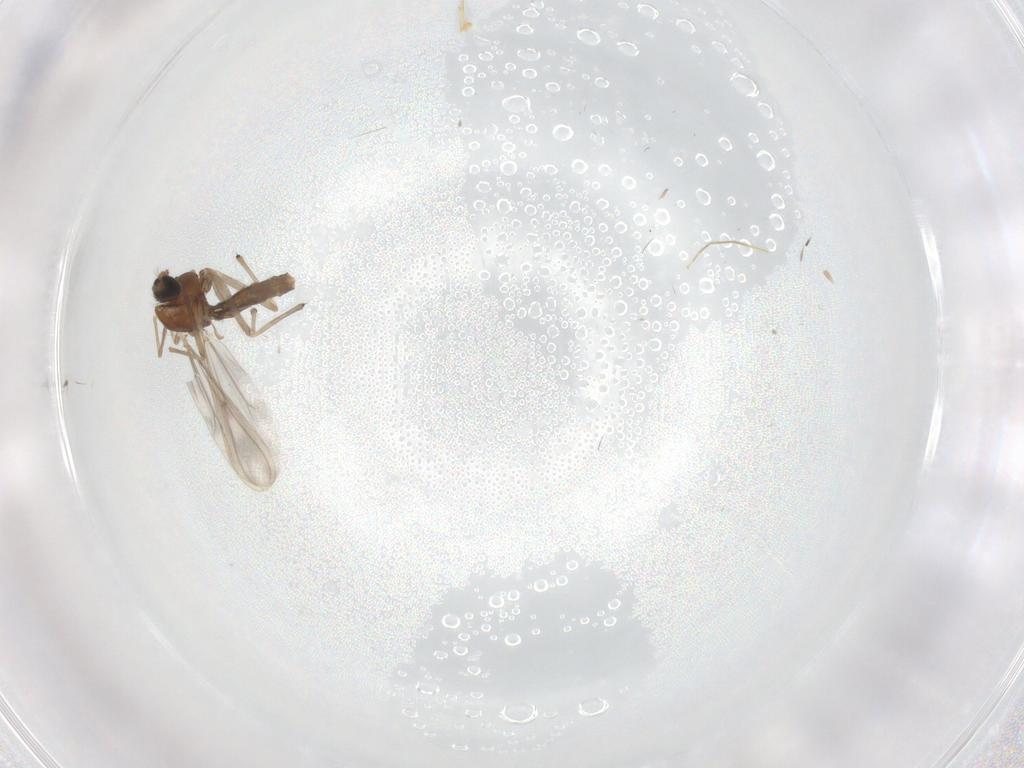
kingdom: Animalia
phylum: Arthropoda
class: Insecta
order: Diptera
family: Chironomidae
